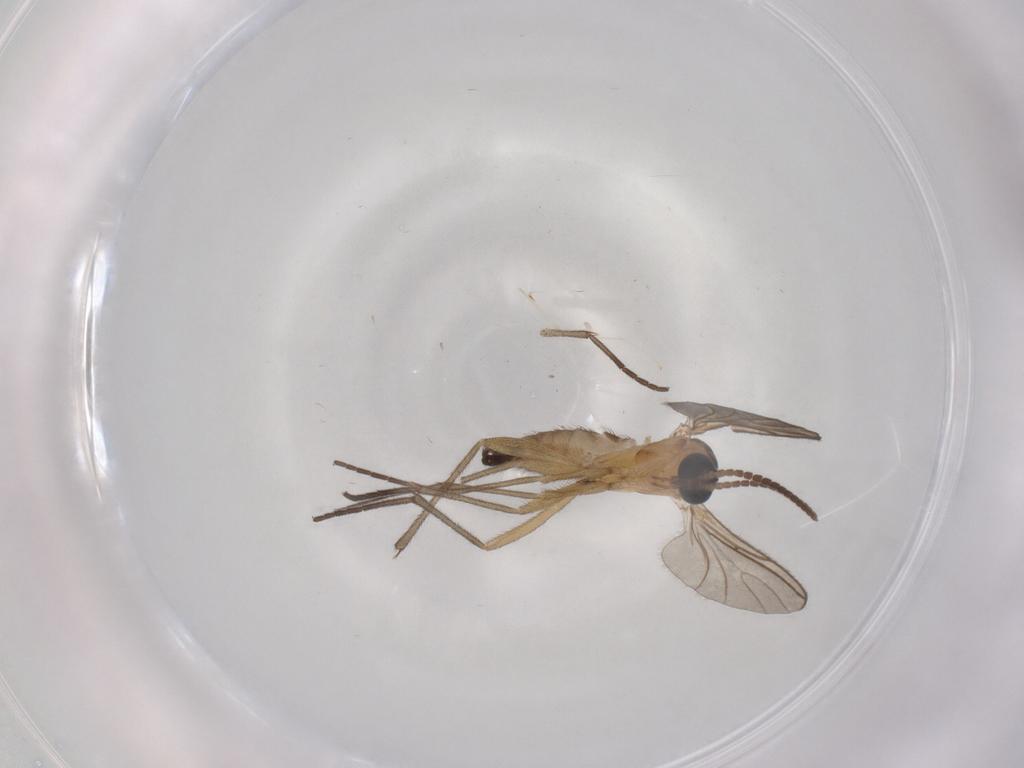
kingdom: Animalia
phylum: Arthropoda
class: Insecta
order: Diptera
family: Sciaridae
